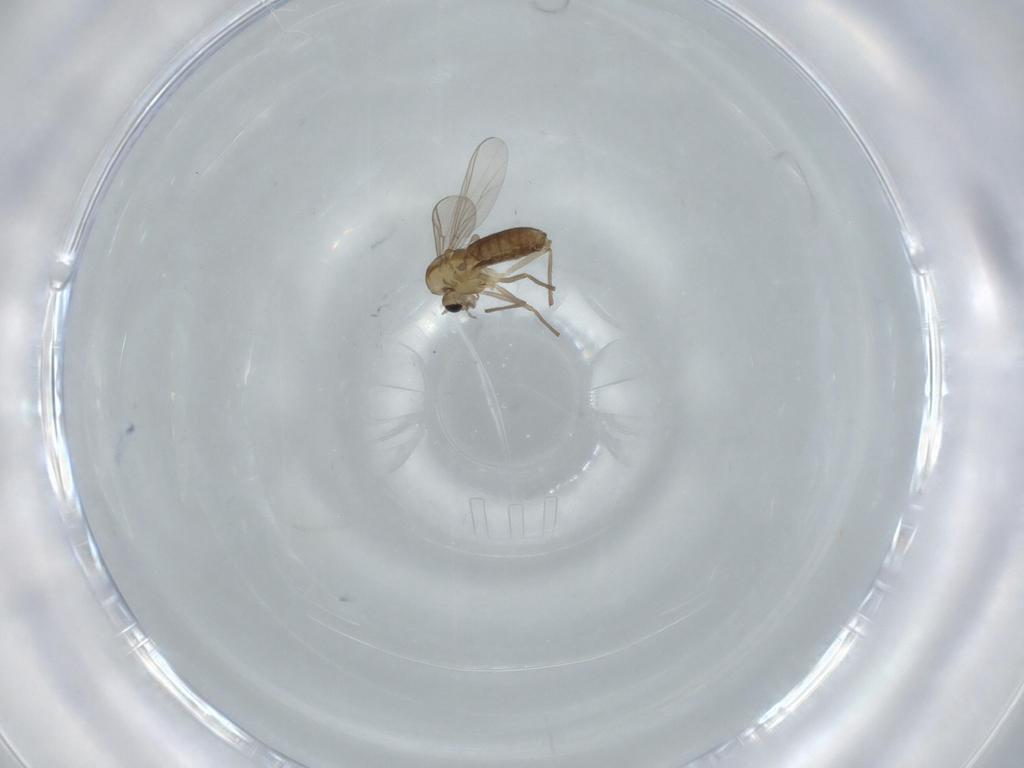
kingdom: Animalia
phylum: Arthropoda
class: Insecta
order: Diptera
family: Chironomidae
